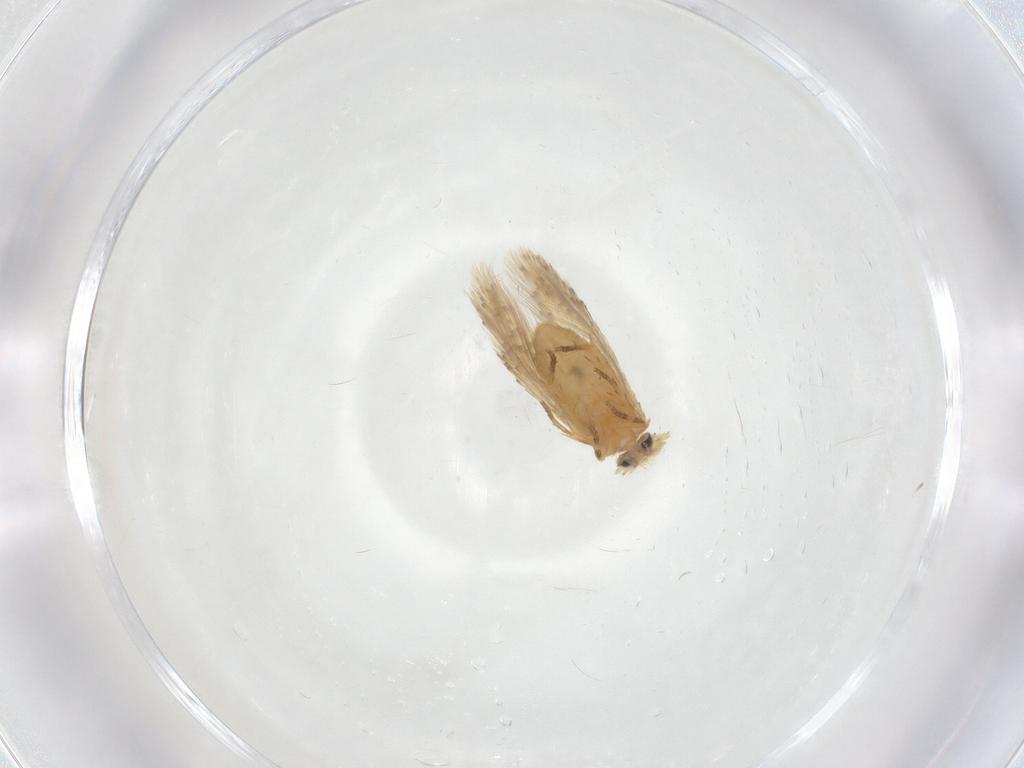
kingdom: Animalia
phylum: Arthropoda
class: Insecta
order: Lepidoptera
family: Nepticulidae
